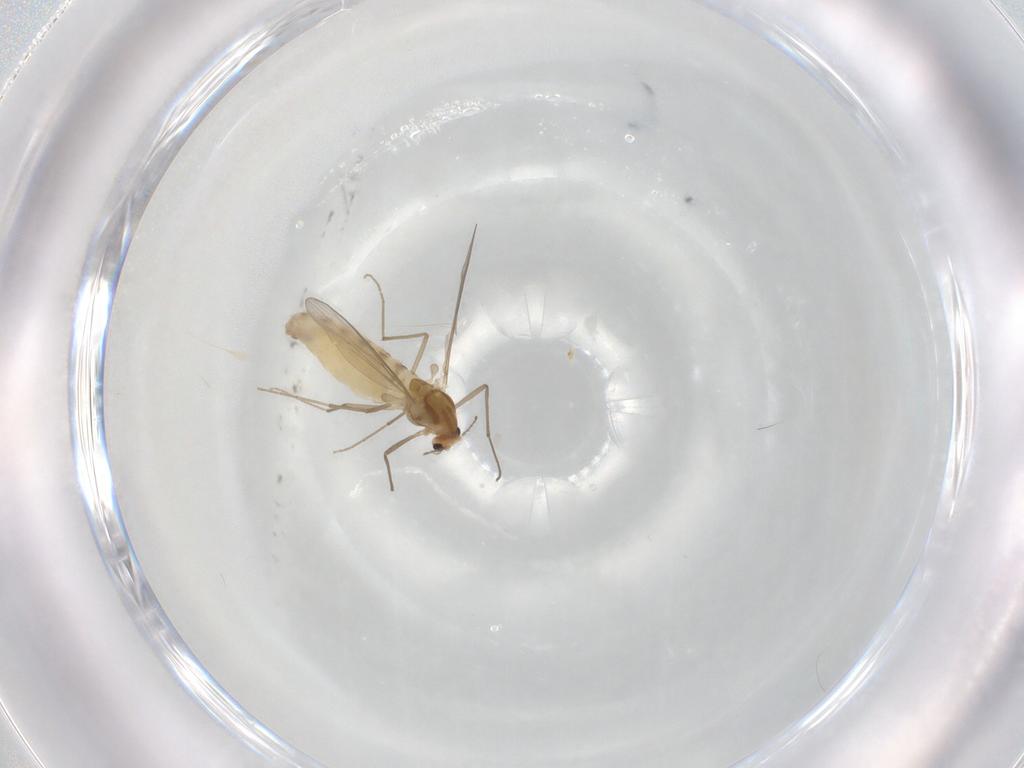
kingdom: Animalia
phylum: Arthropoda
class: Insecta
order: Diptera
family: Chironomidae
